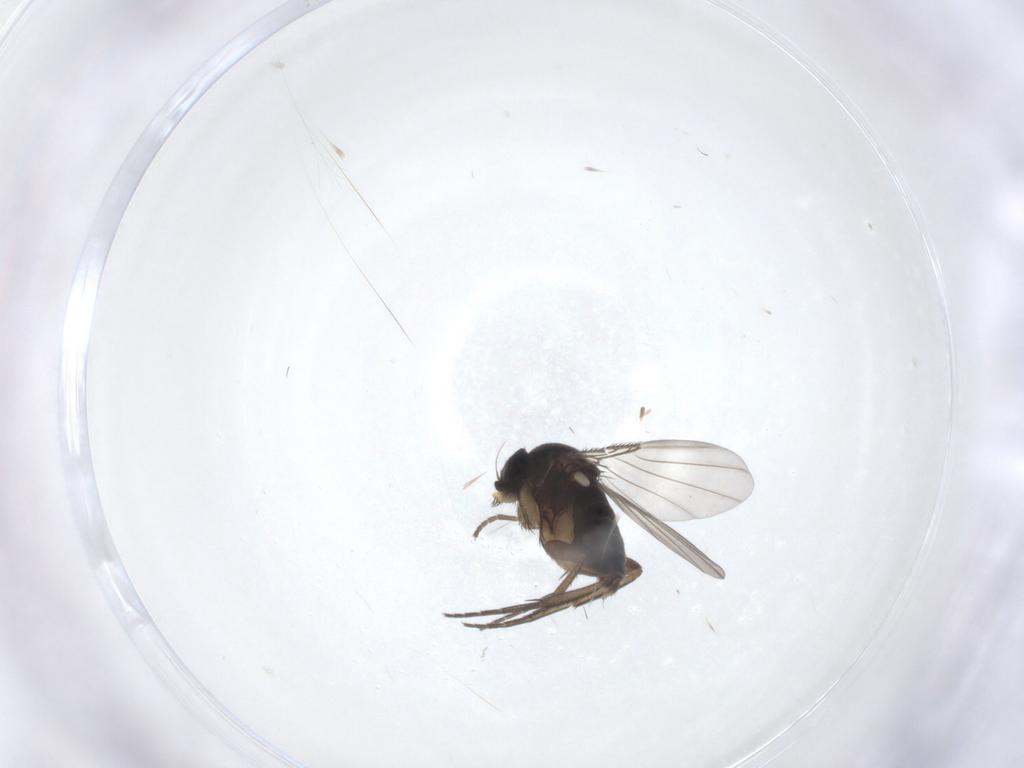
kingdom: Animalia
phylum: Arthropoda
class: Insecta
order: Diptera
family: Phoridae
